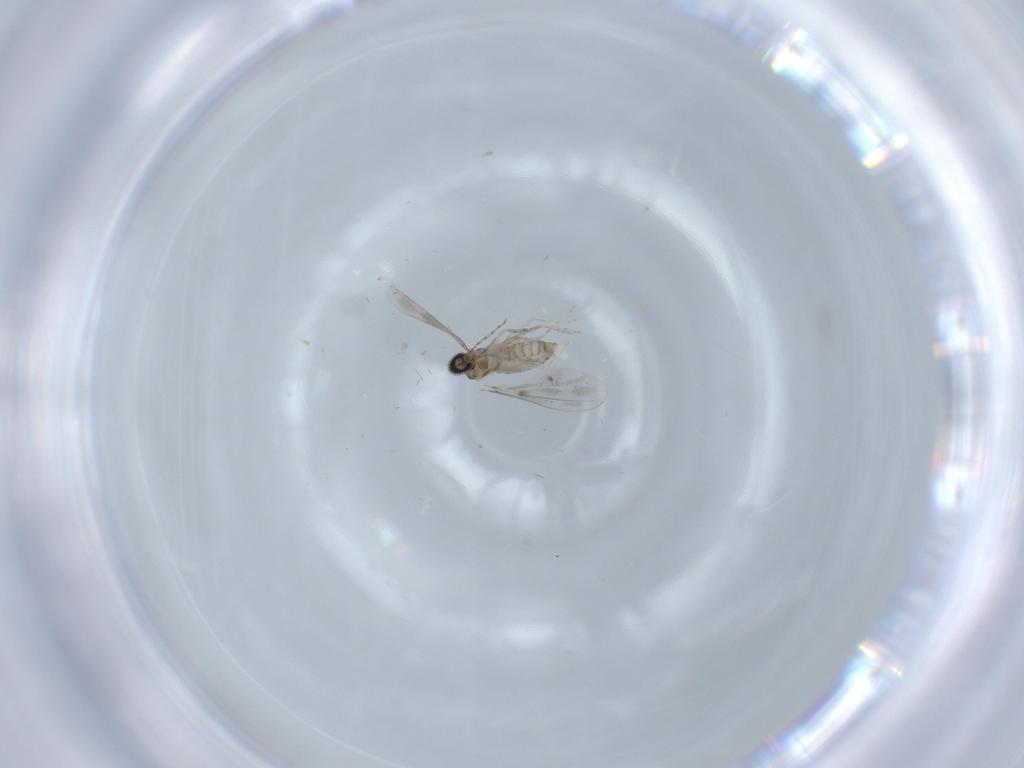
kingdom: Animalia
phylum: Arthropoda
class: Insecta
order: Diptera
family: Cecidomyiidae
